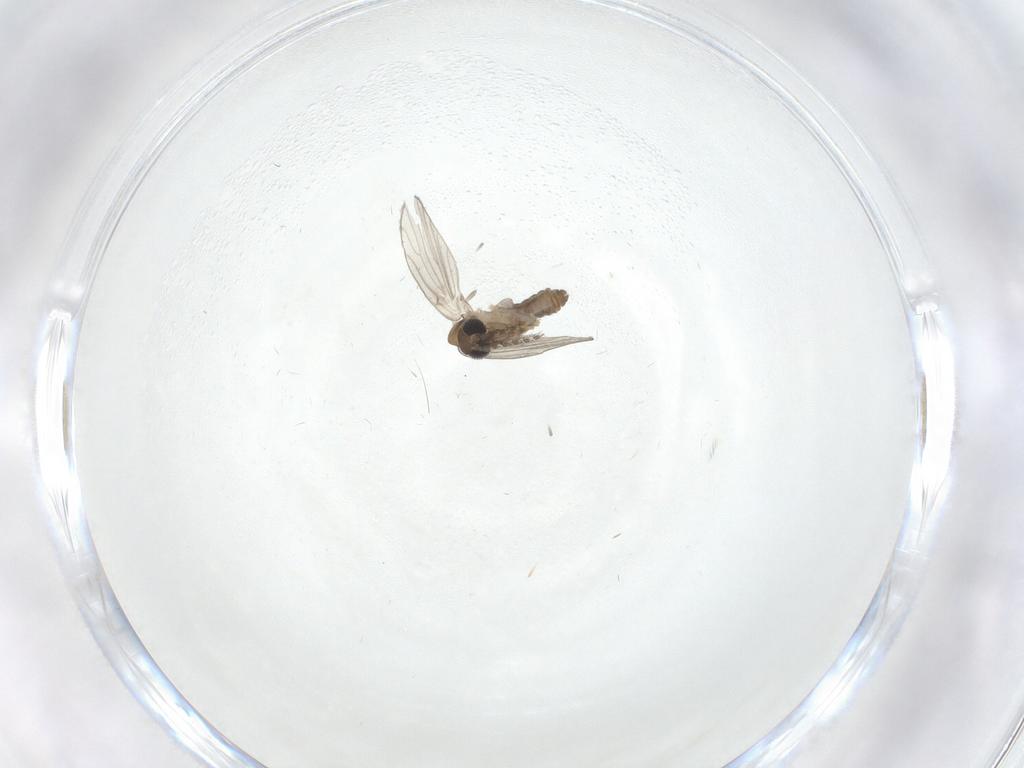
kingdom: Animalia
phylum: Arthropoda
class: Insecta
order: Diptera
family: Psychodidae
